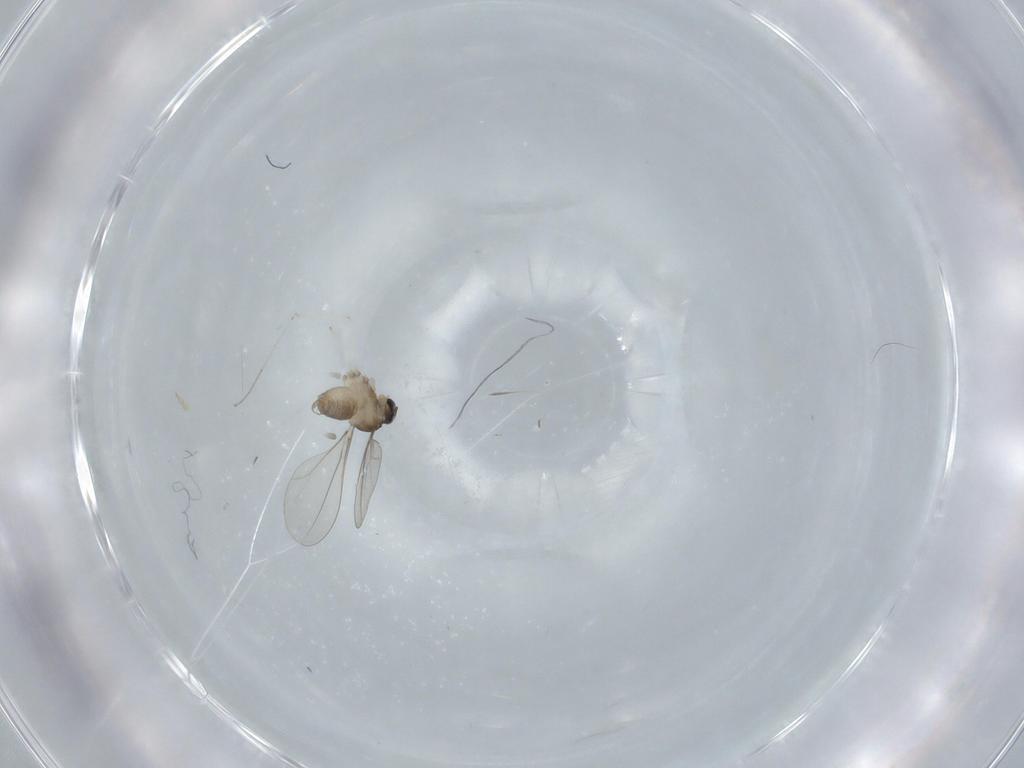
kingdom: Animalia
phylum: Arthropoda
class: Insecta
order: Diptera
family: Cecidomyiidae
